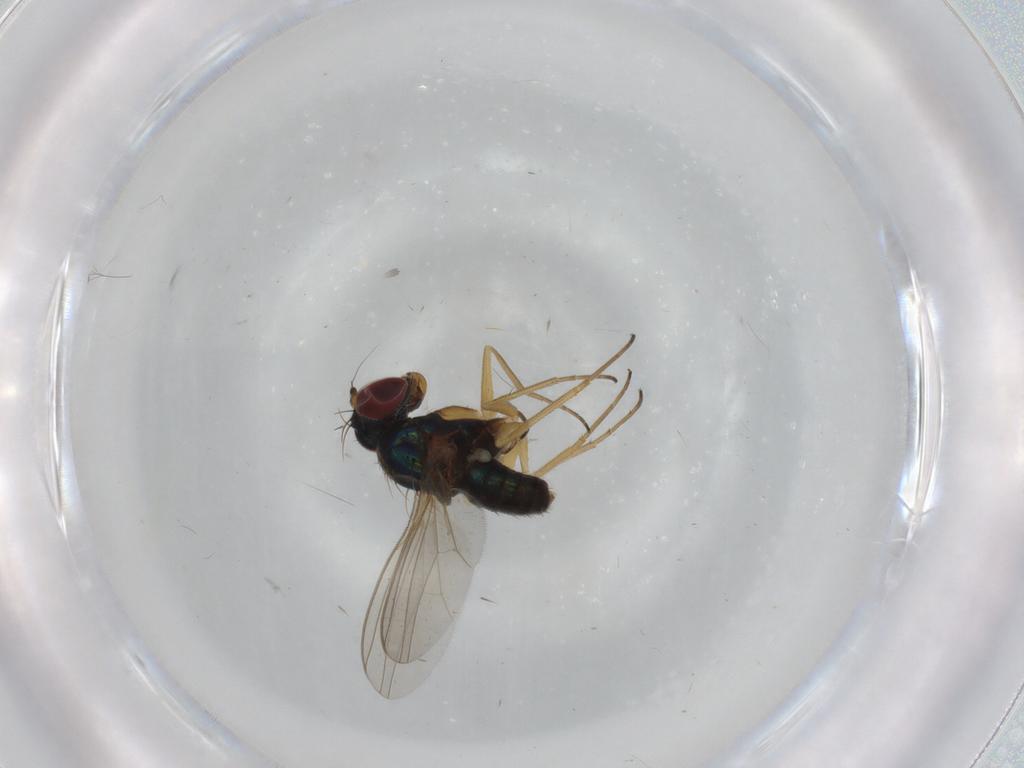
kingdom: Animalia
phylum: Arthropoda
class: Insecta
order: Diptera
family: Dolichopodidae
